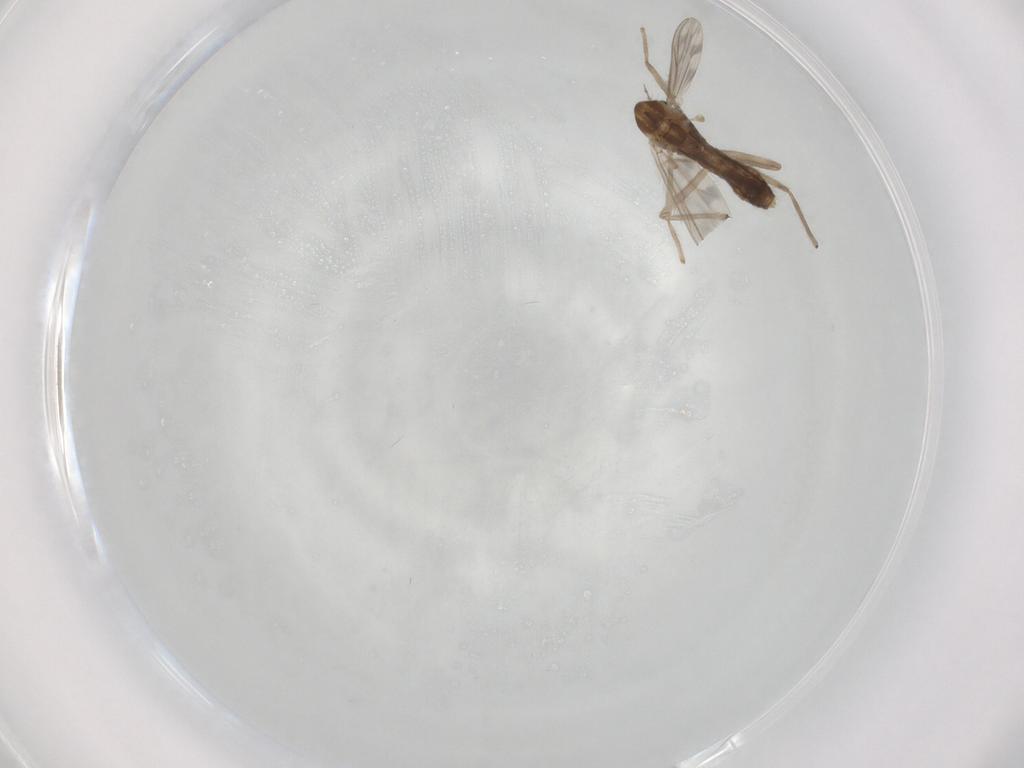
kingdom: Animalia
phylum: Arthropoda
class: Insecta
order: Diptera
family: Chironomidae
